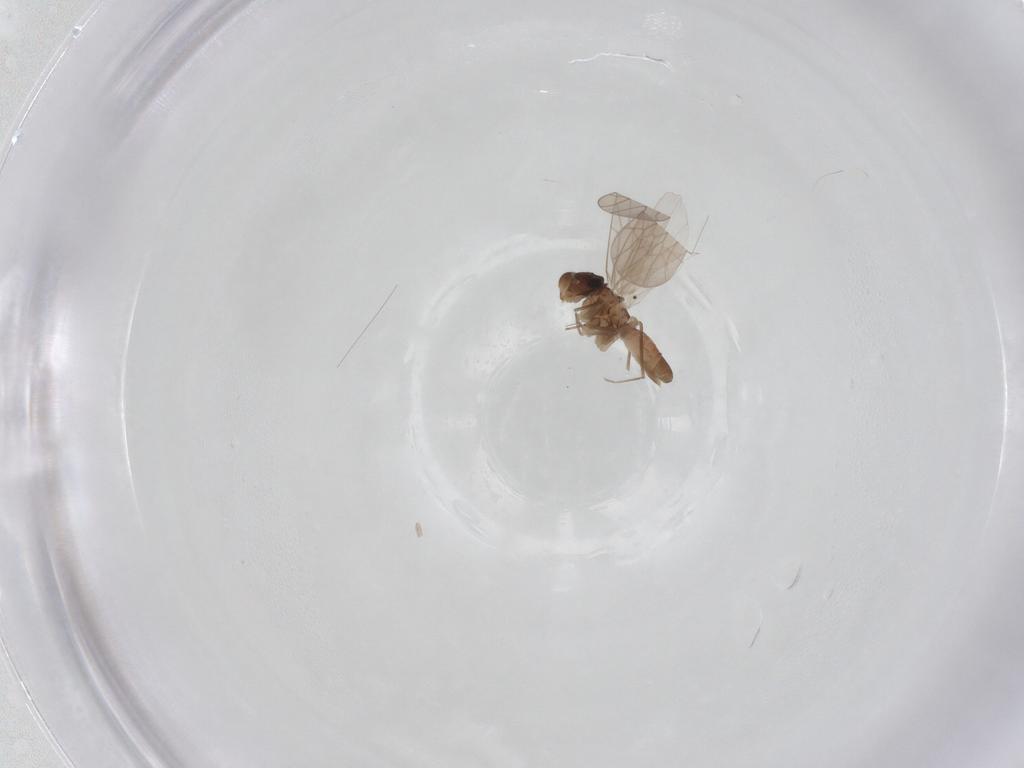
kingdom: Animalia
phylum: Arthropoda
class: Insecta
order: Psocodea
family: Lepidopsocidae
